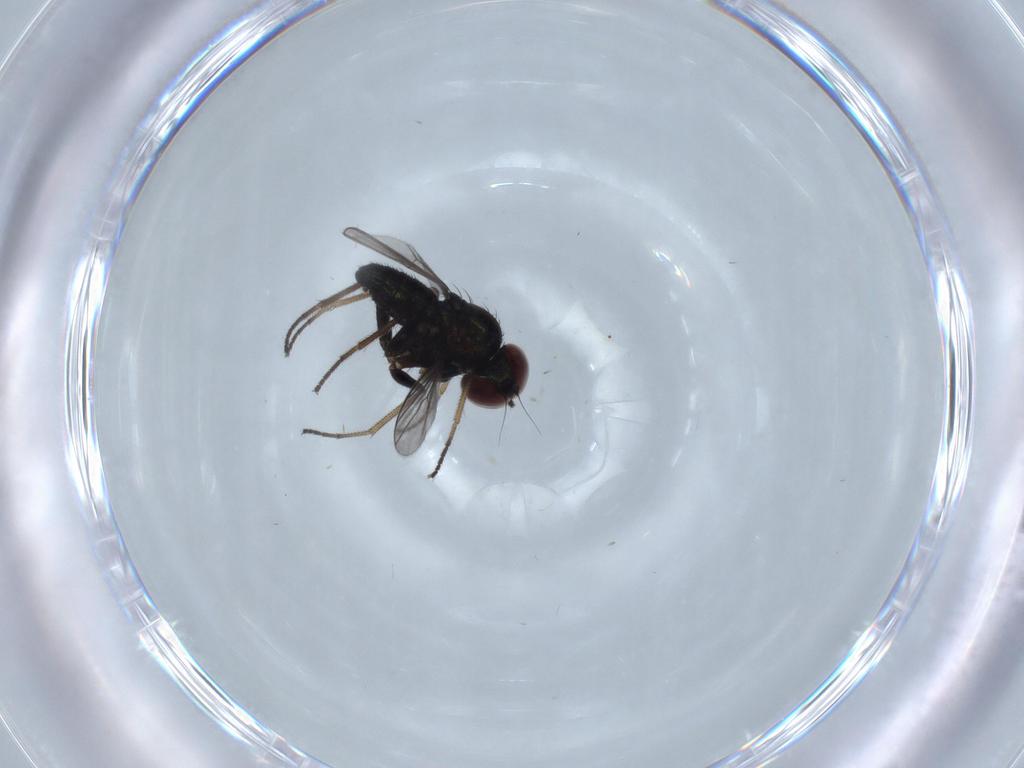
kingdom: Animalia
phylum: Arthropoda
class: Insecta
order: Diptera
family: Dolichopodidae
